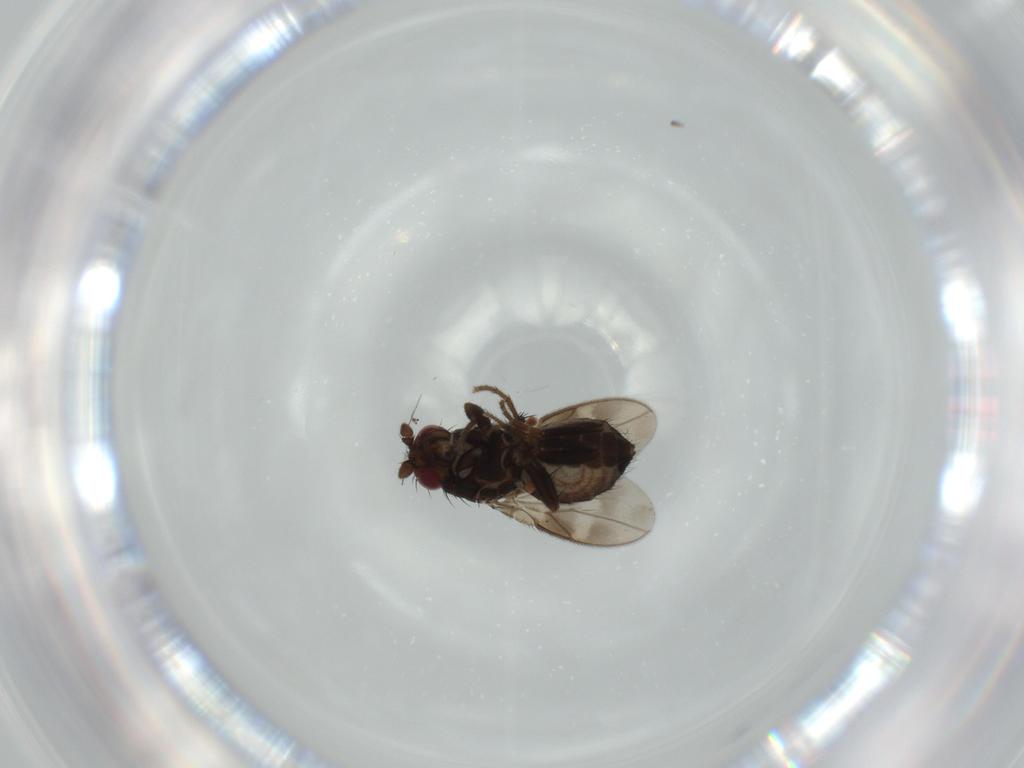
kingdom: Animalia
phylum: Arthropoda
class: Insecta
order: Diptera
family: Sphaeroceridae
